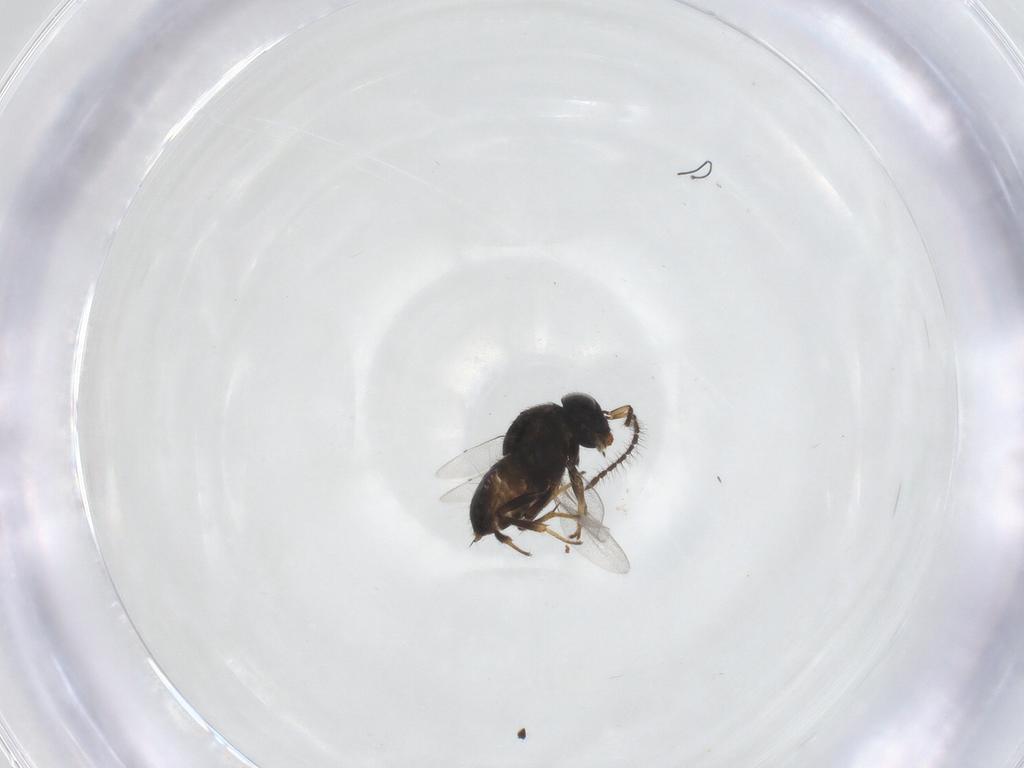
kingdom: Animalia
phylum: Arthropoda
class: Insecta
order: Hymenoptera
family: Scelionidae
